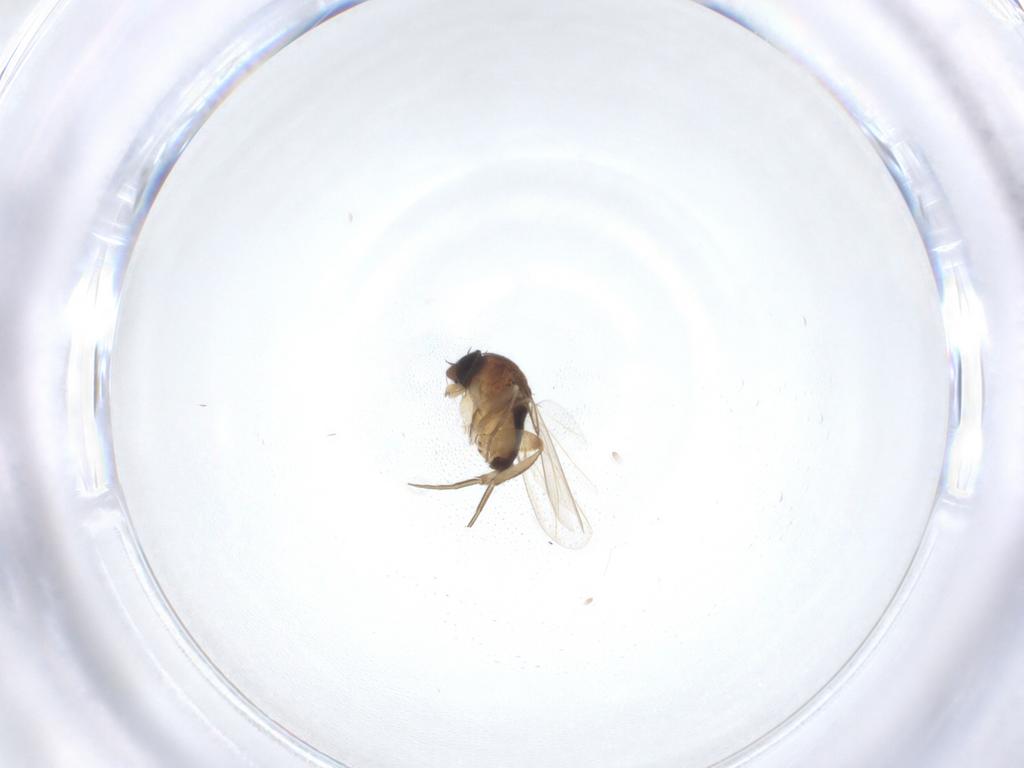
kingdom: Animalia
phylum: Arthropoda
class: Insecta
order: Diptera
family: Phoridae
